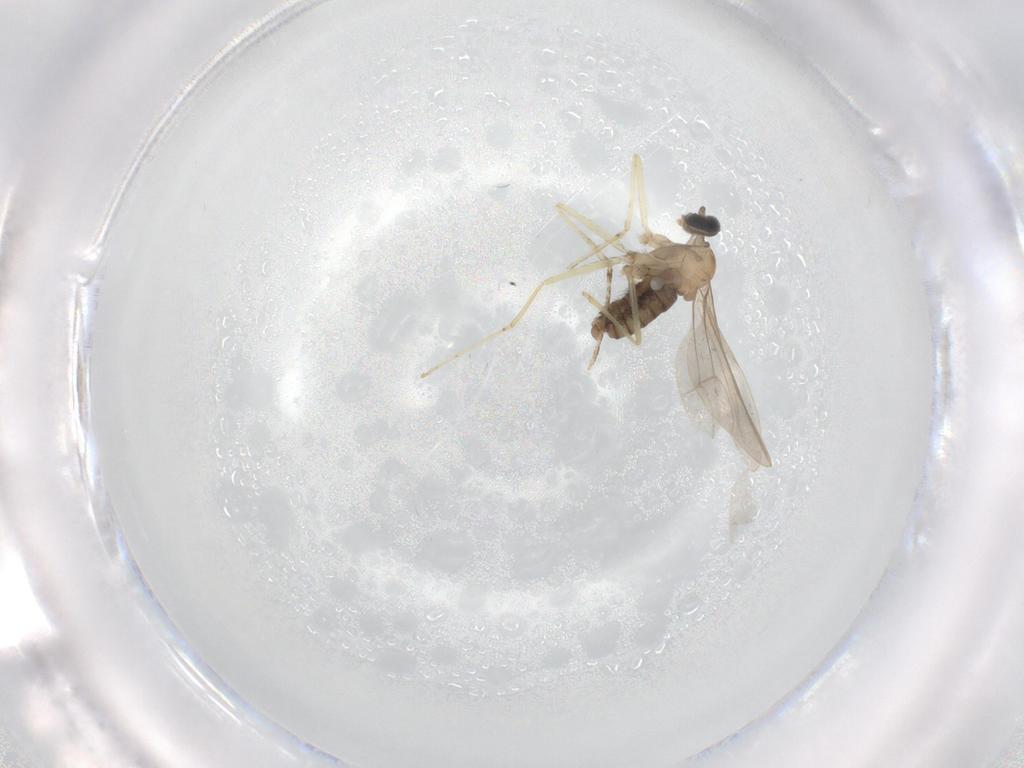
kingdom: Animalia
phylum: Arthropoda
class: Insecta
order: Diptera
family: Cecidomyiidae
